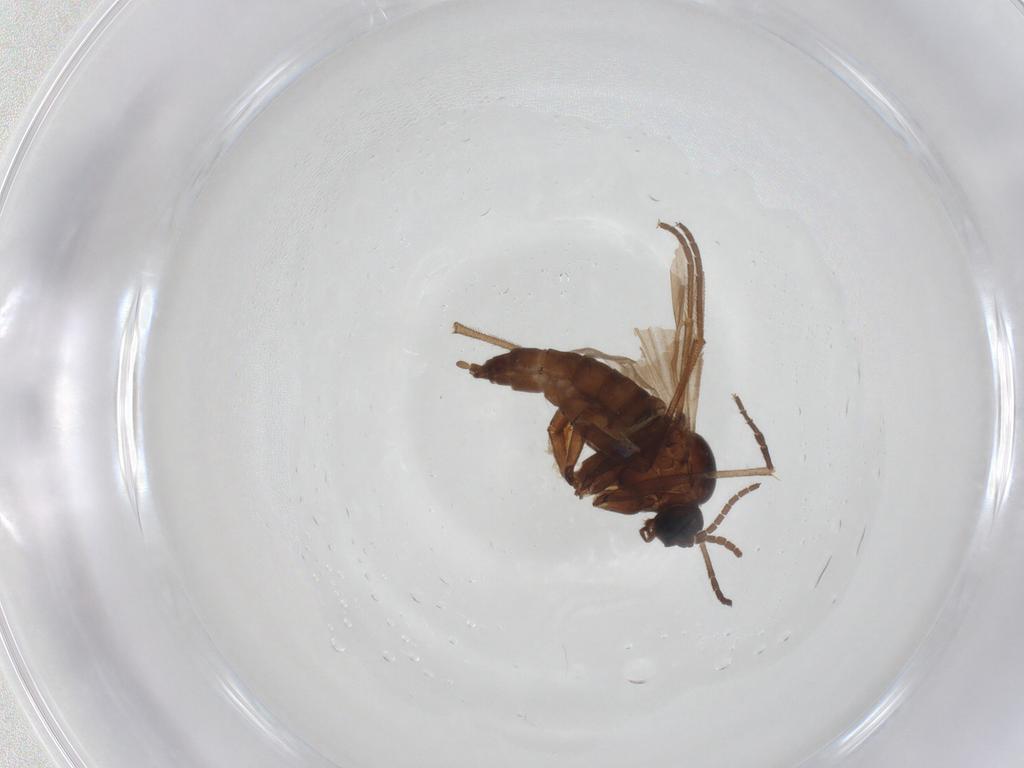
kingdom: Animalia
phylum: Arthropoda
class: Insecta
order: Diptera
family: Sciaridae
